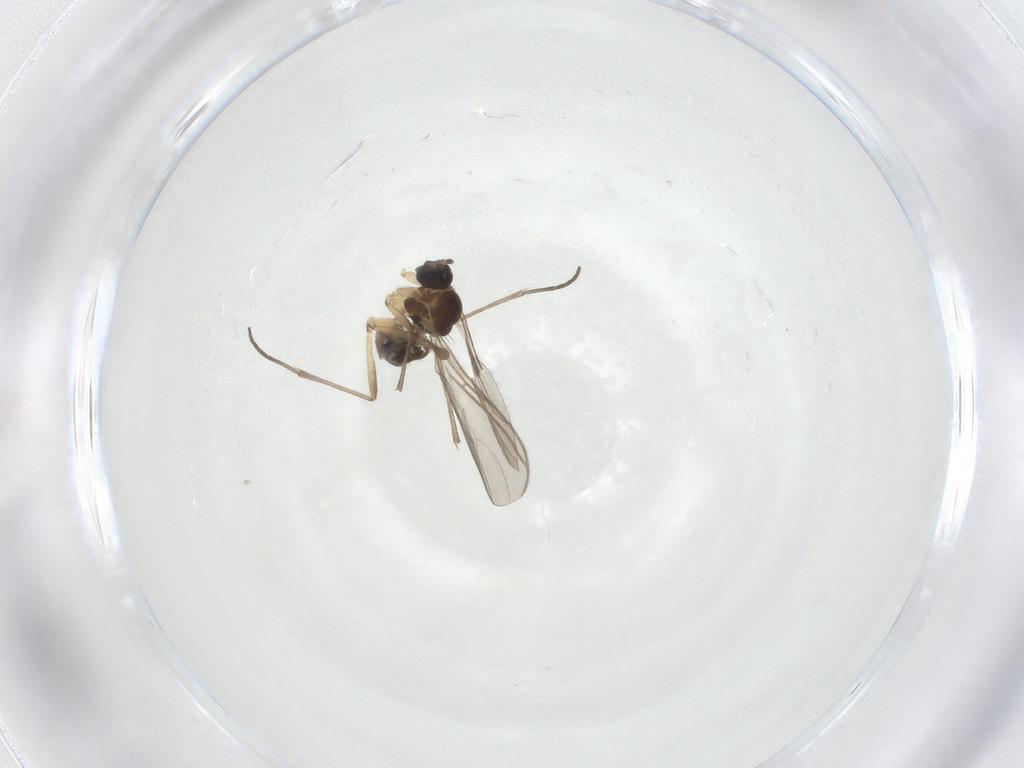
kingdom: Animalia
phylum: Arthropoda
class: Insecta
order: Diptera
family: Sciaridae
